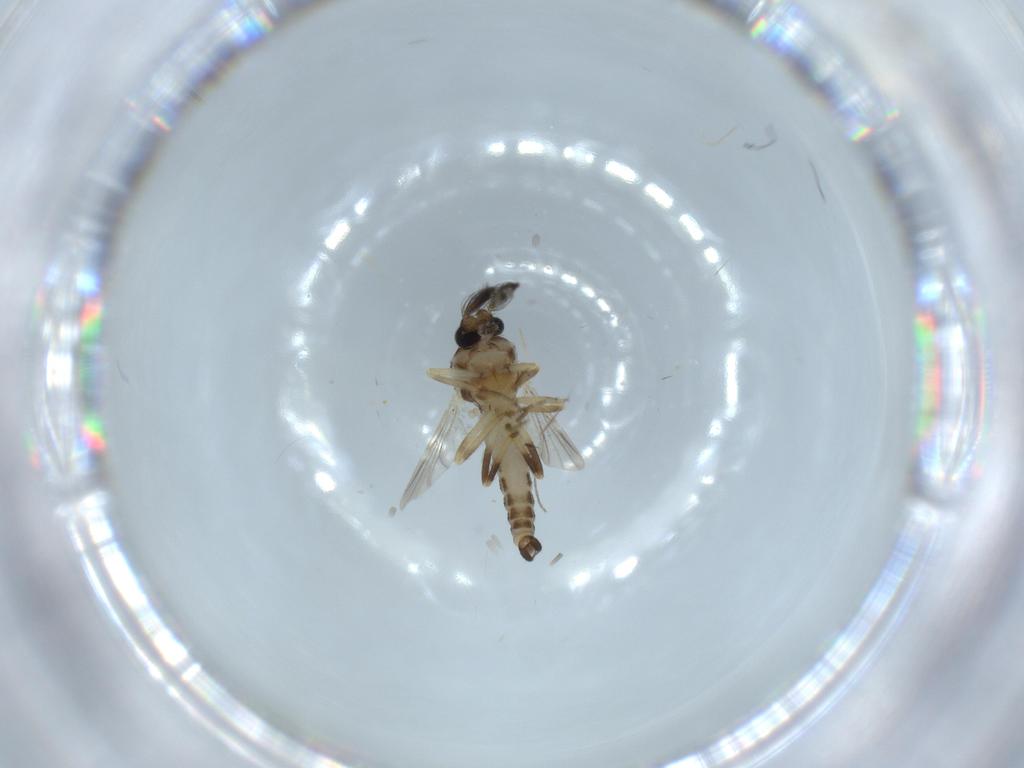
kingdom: Animalia
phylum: Arthropoda
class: Insecta
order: Diptera
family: Ceratopogonidae
